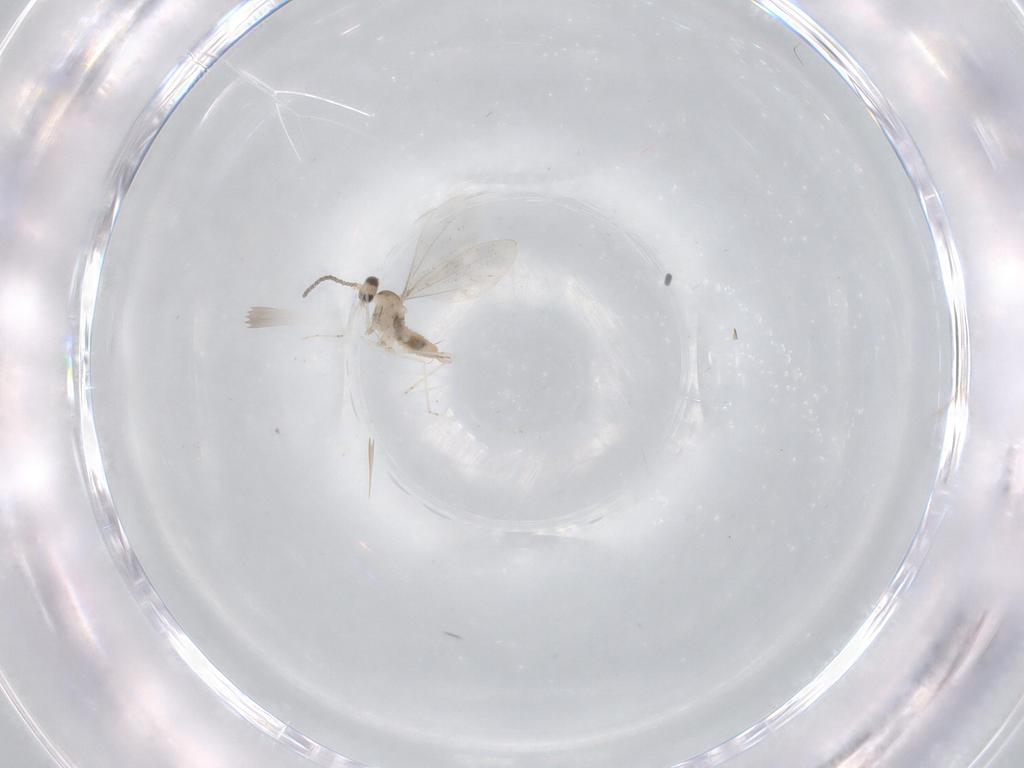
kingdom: Animalia
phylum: Arthropoda
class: Insecta
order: Diptera
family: Cecidomyiidae
